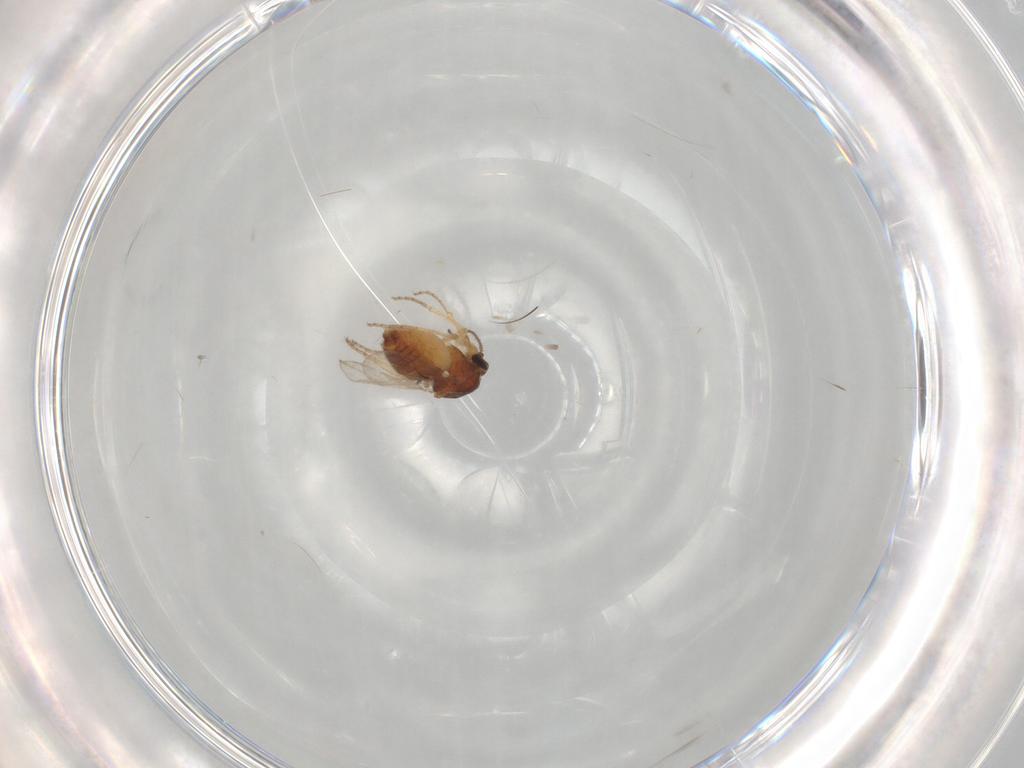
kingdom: Animalia
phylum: Arthropoda
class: Insecta
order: Diptera
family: Ceratopogonidae
